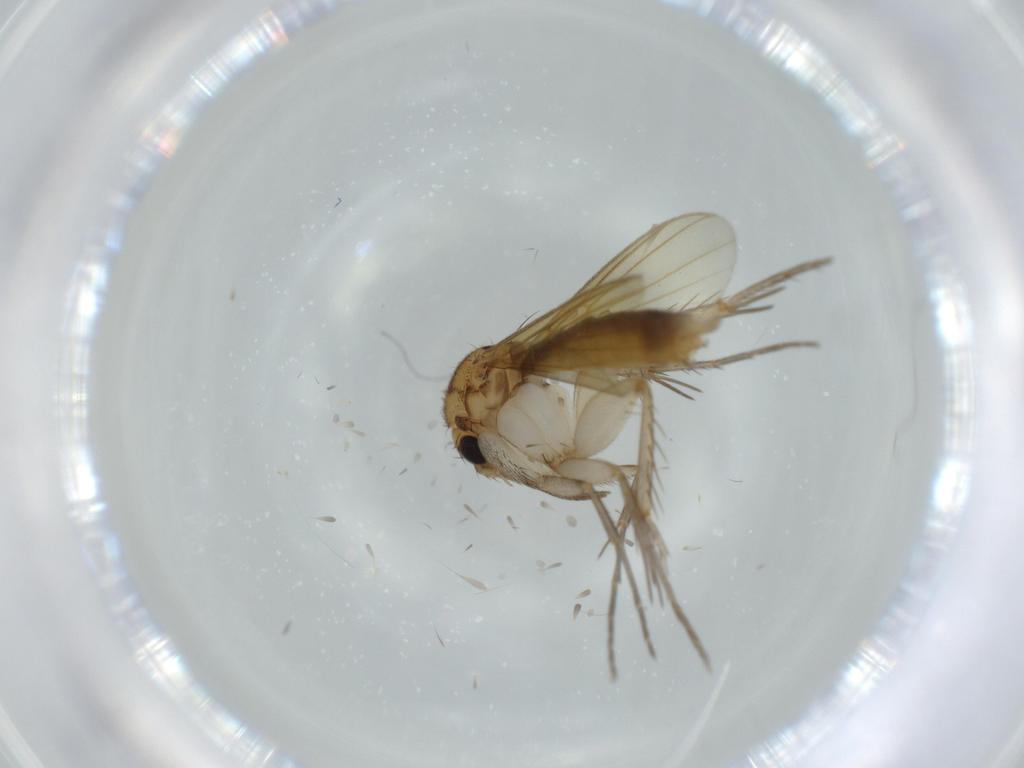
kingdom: Animalia
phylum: Arthropoda
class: Insecta
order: Diptera
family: Mycetophilidae
